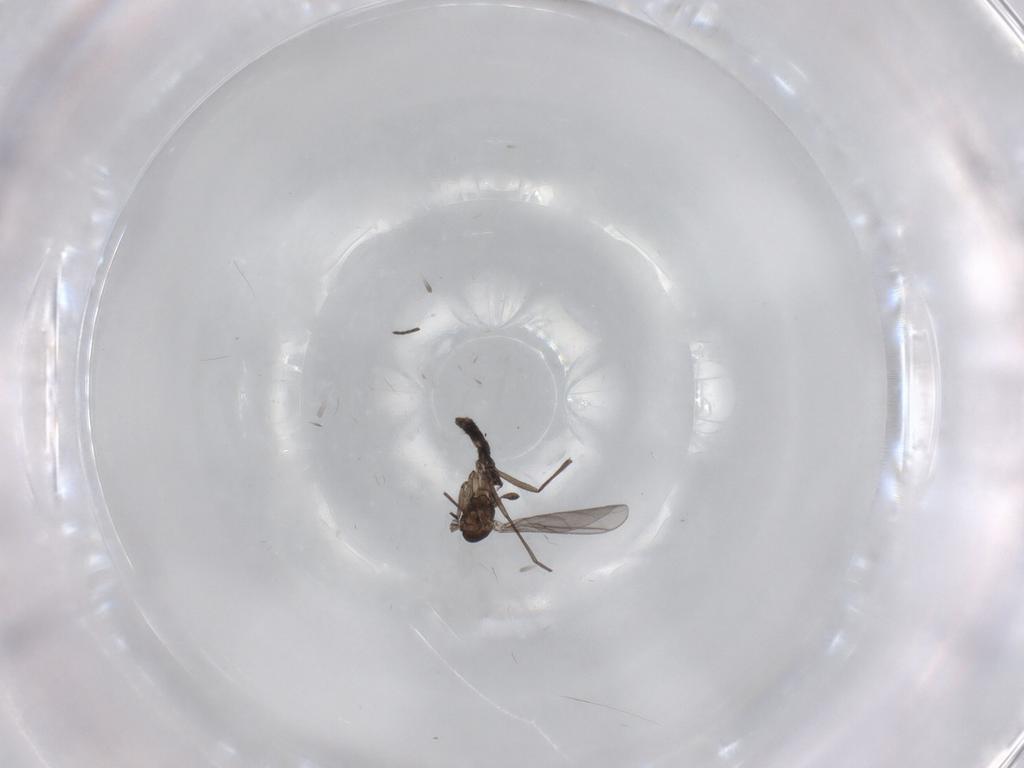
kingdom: Animalia
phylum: Arthropoda
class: Insecta
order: Diptera
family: Chironomidae
